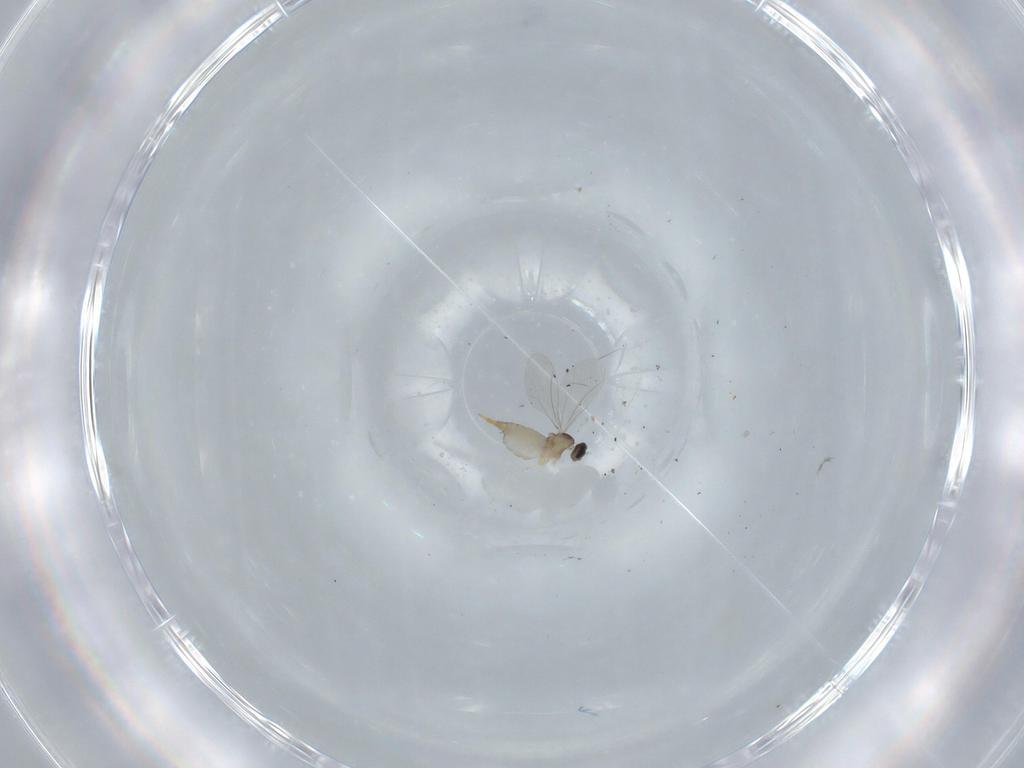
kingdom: Animalia
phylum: Arthropoda
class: Insecta
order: Diptera
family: Cecidomyiidae
